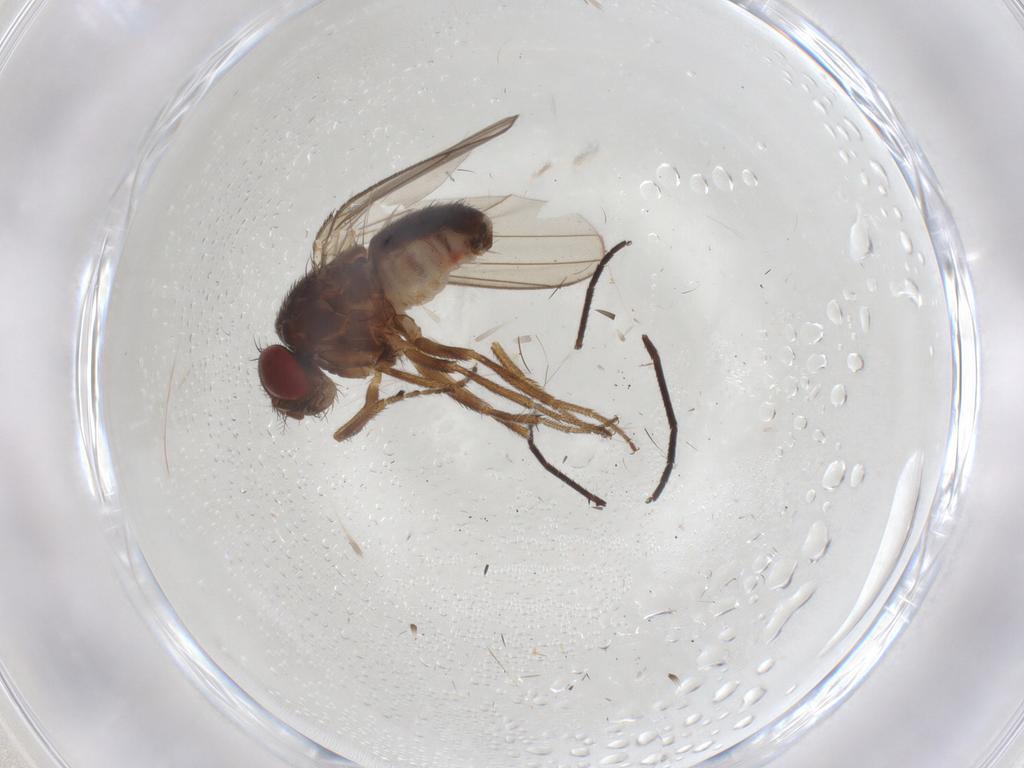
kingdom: Animalia
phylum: Arthropoda
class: Insecta
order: Diptera
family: Drosophilidae
